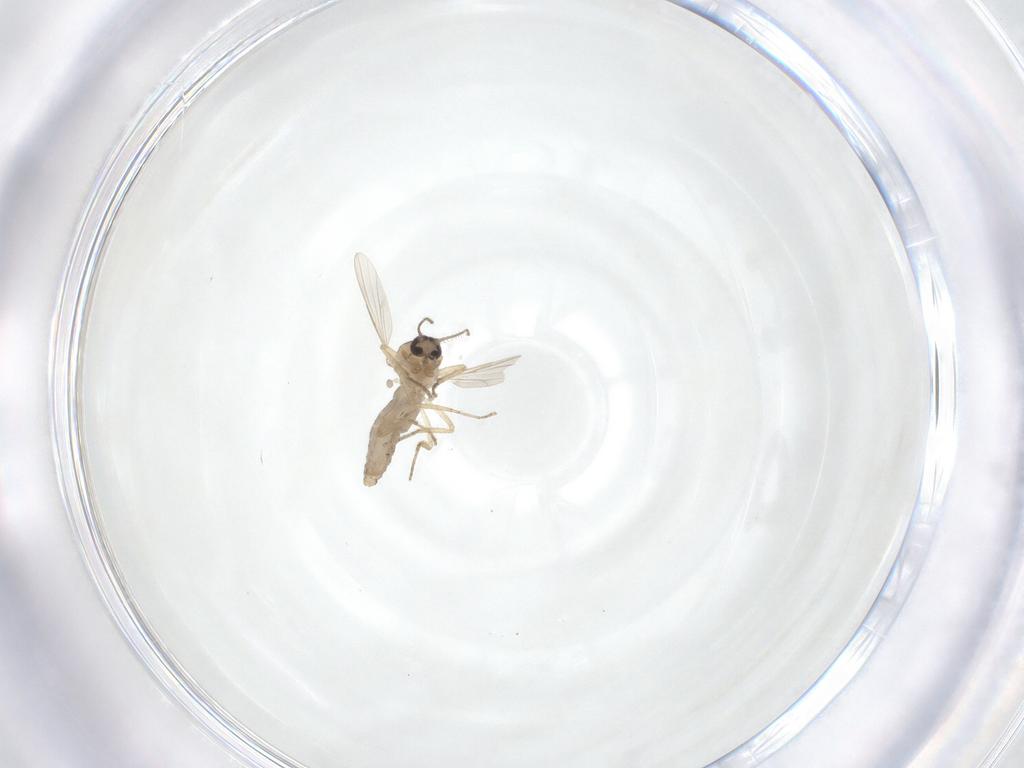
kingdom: Animalia
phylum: Arthropoda
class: Insecta
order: Diptera
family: Ceratopogonidae
